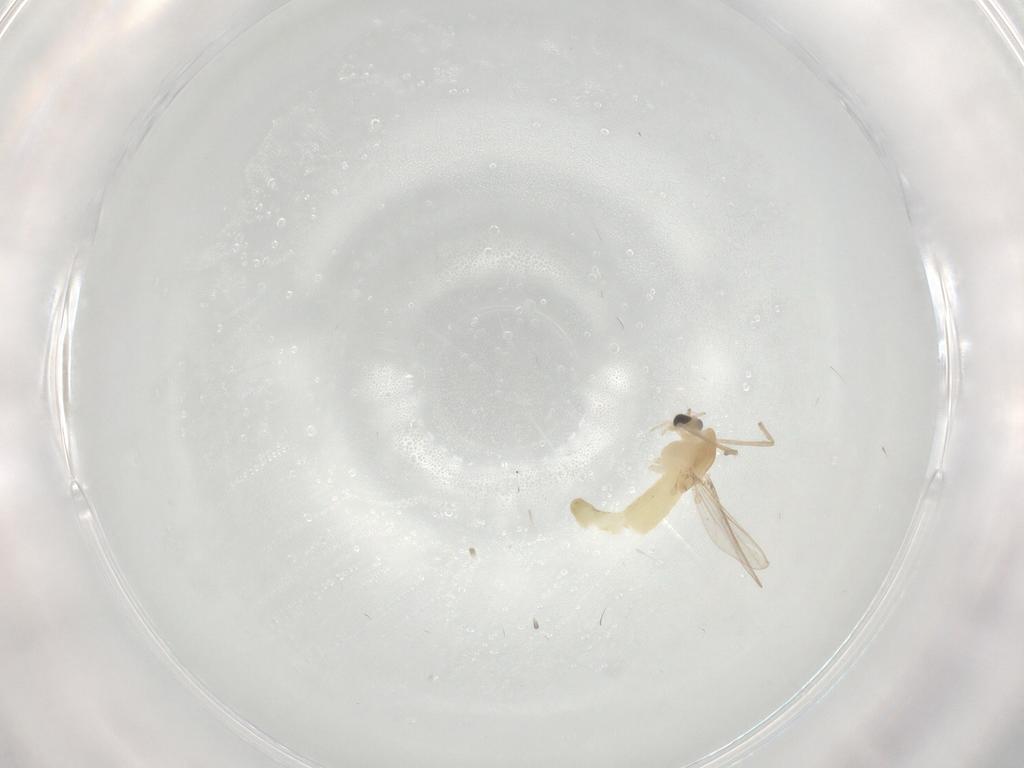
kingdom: Animalia
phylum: Arthropoda
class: Insecta
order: Diptera
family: Chironomidae
